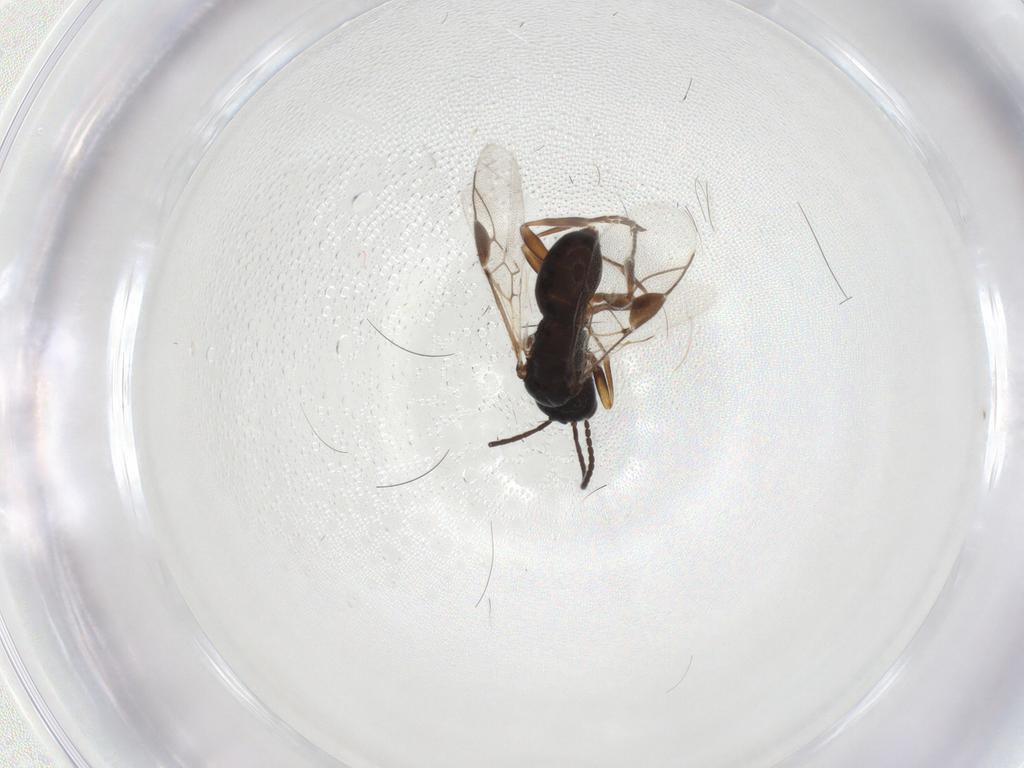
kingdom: Animalia
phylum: Arthropoda
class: Insecta
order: Hymenoptera
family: Braconidae
